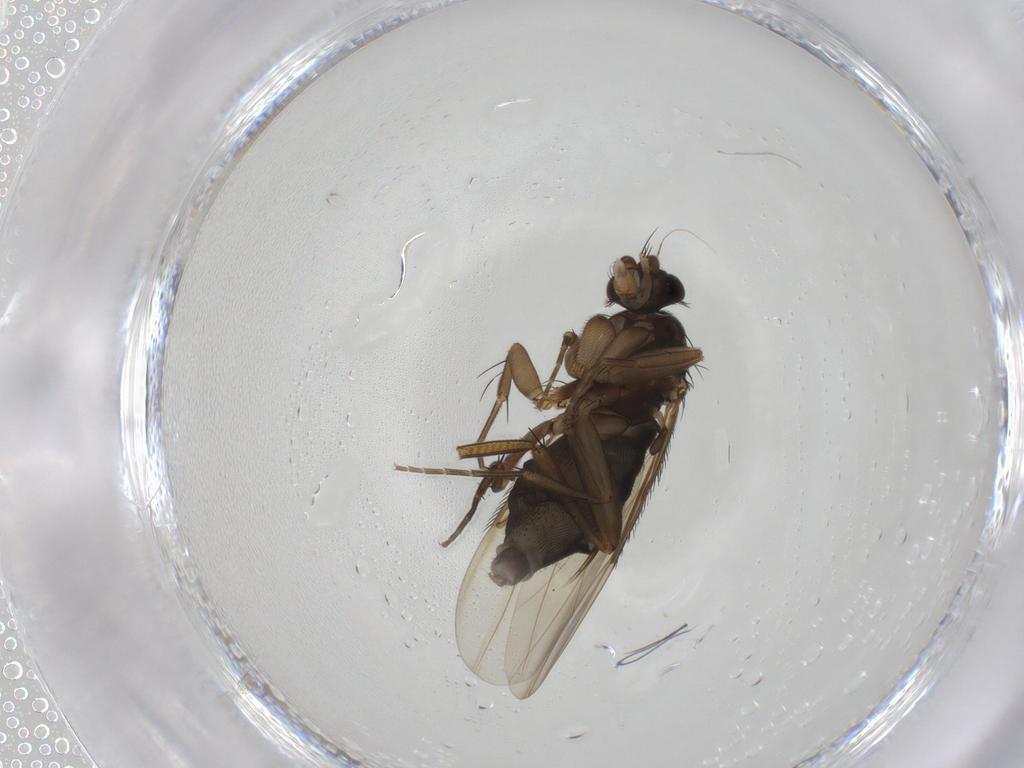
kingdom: Animalia
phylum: Arthropoda
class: Insecta
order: Diptera
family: Phoridae
